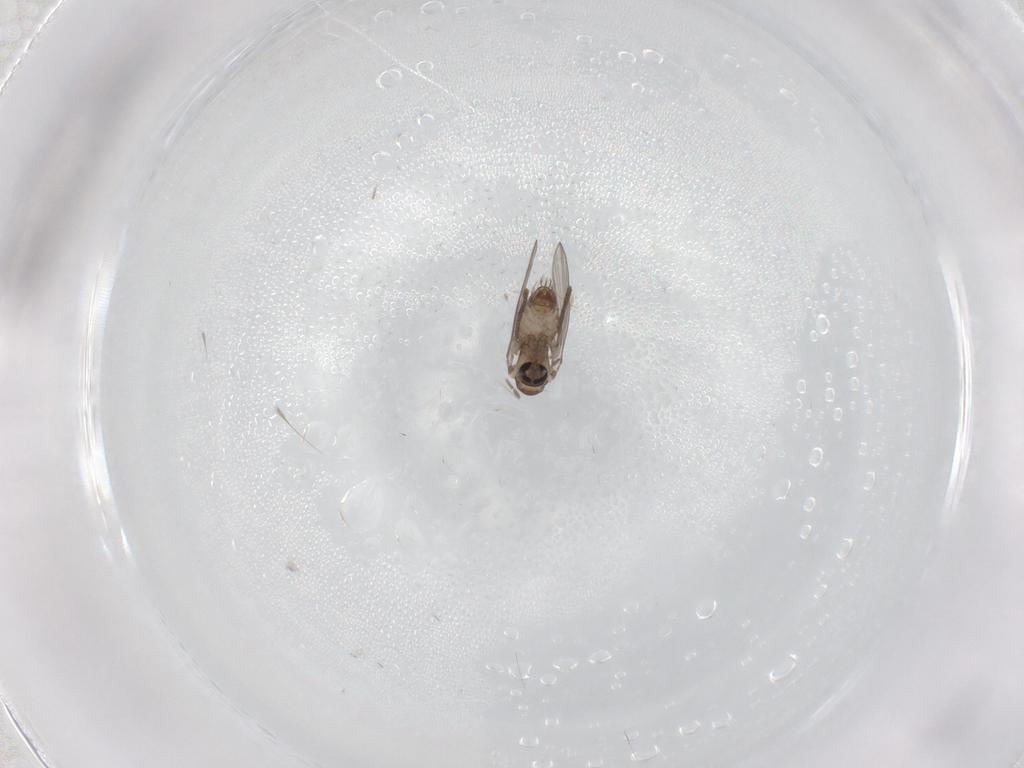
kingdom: Animalia
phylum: Arthropoda
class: Insecta
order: Diptera
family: Psychodidae
